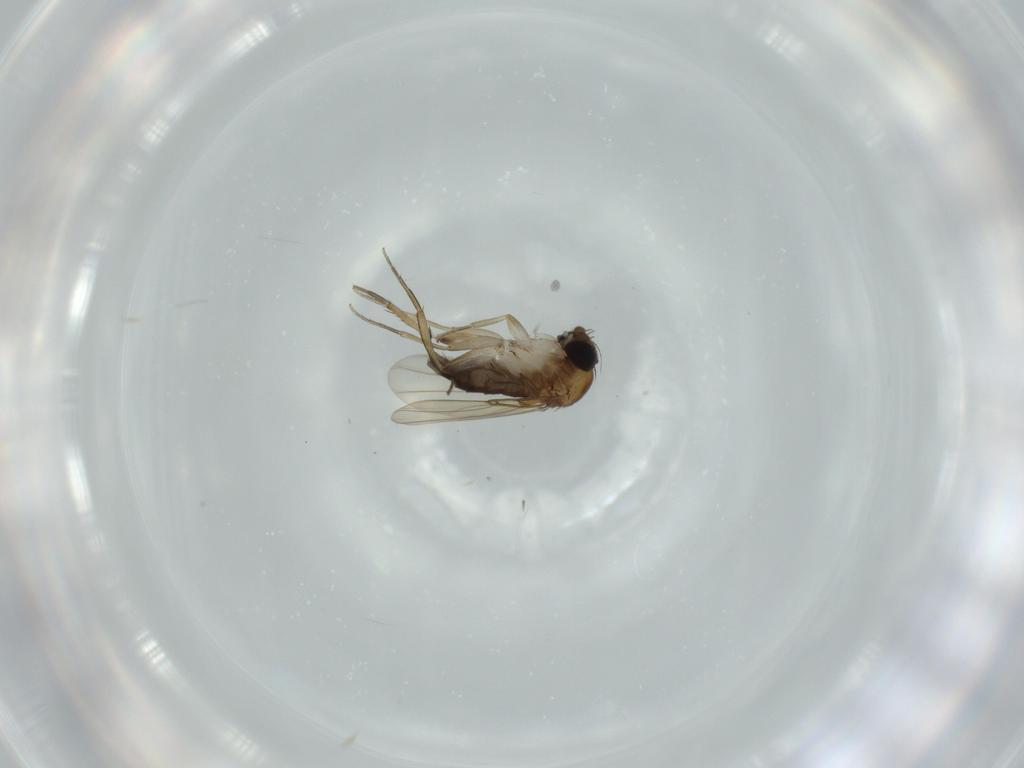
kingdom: Animalia
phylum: Arthropoda
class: Insecta
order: Diptera
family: Phoridae
